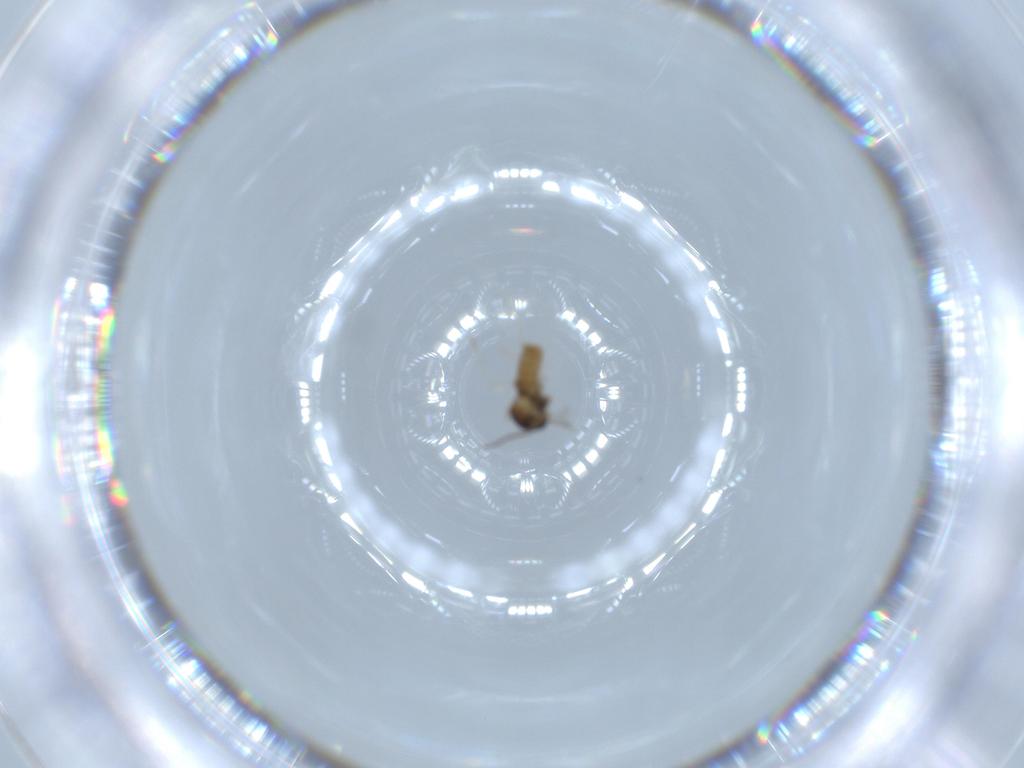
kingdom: Animalia
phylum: Arthropoda
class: Insecta
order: Diptera
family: Cecidomyiidae
